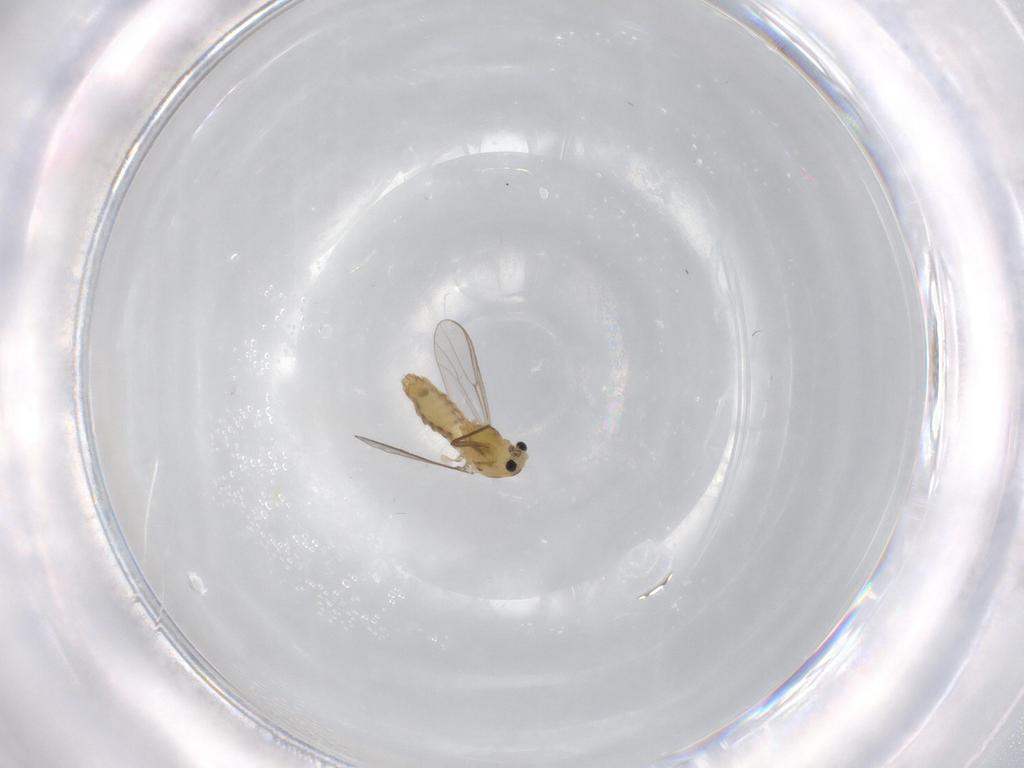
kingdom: Animalia
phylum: Arthropoda
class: Insecta
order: Diptera
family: Chironomidae
